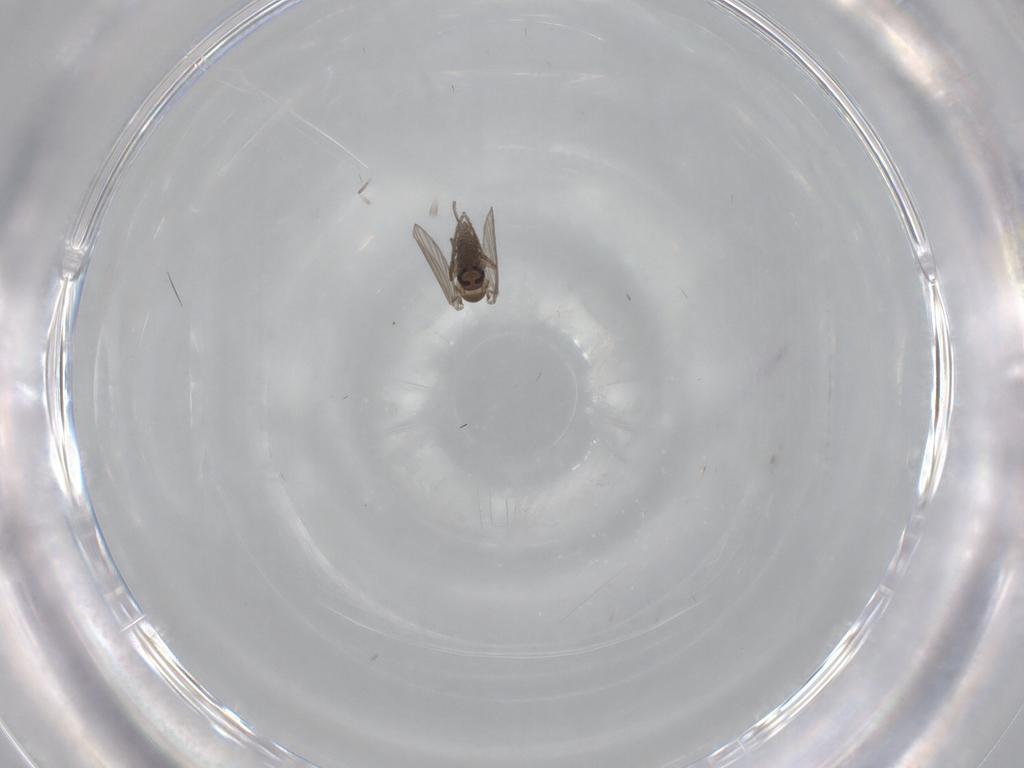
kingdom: Animalia
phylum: Arthropoda
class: Insecta
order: Diptera
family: Psychodidae
